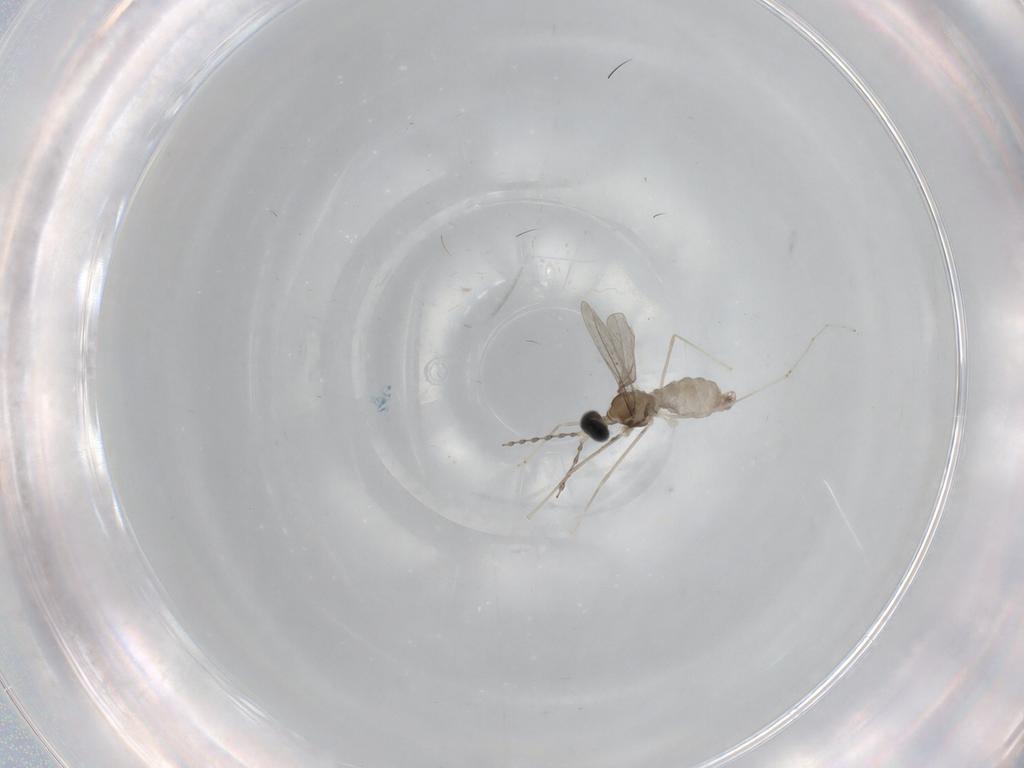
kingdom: Animalia
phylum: Arthropoda
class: Insecta
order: Diptera
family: Cecidomyiidae
